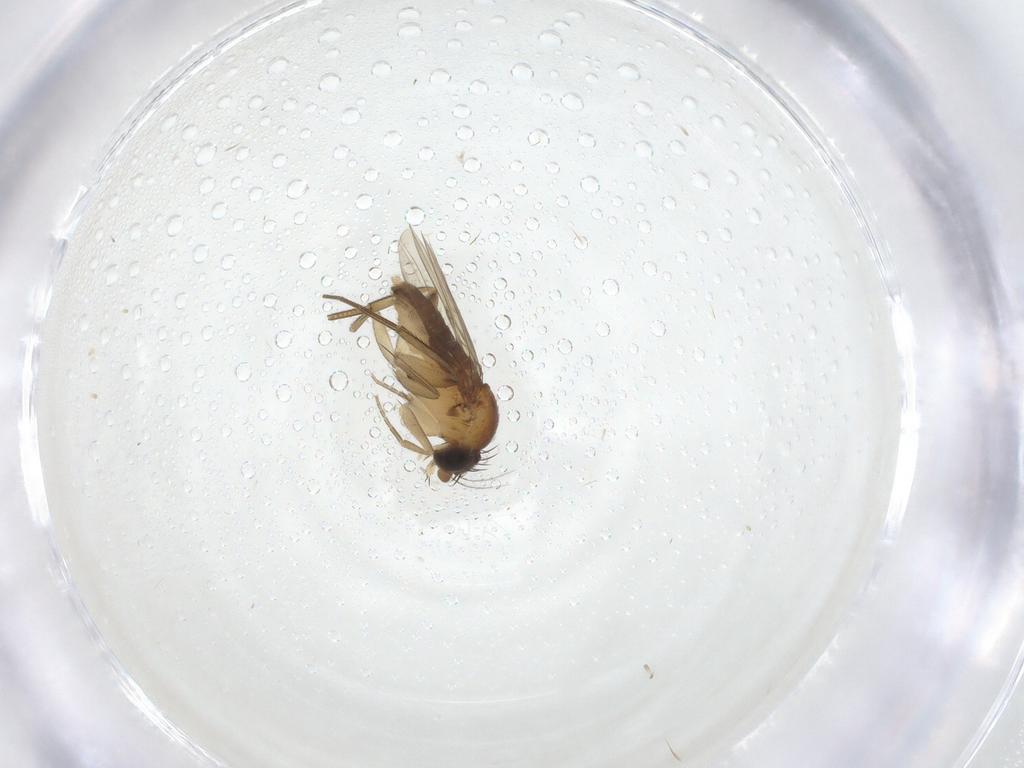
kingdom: Animalia
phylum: Arthropoda
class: Insecta
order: Diptera
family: Phoridae
